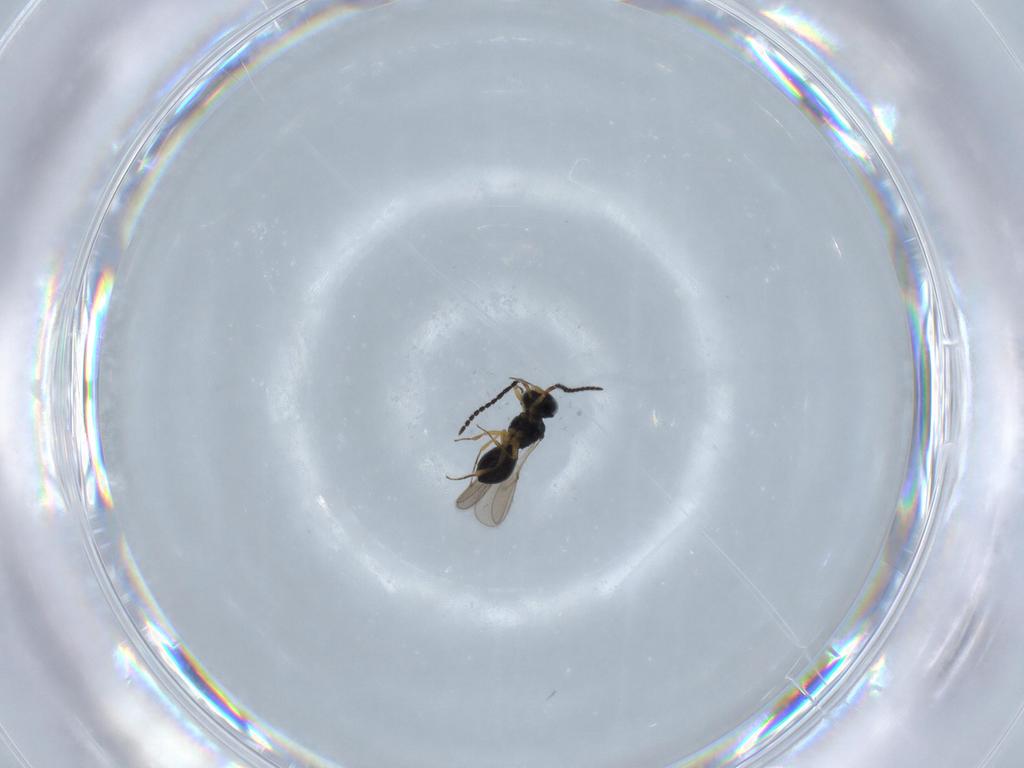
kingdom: Animalia
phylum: Arthropoda
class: Insecta
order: Hymenoptera
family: Scelionidae
